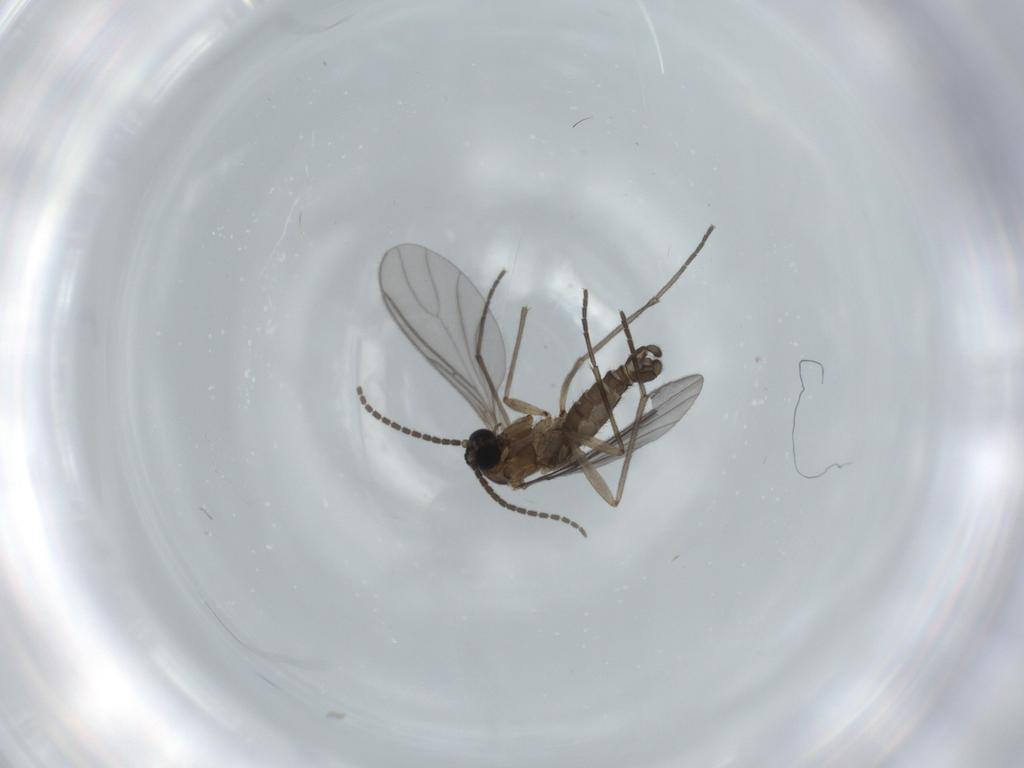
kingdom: Animalia
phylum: Arthropoda
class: Insecta
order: Diptera
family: Sciaridae
